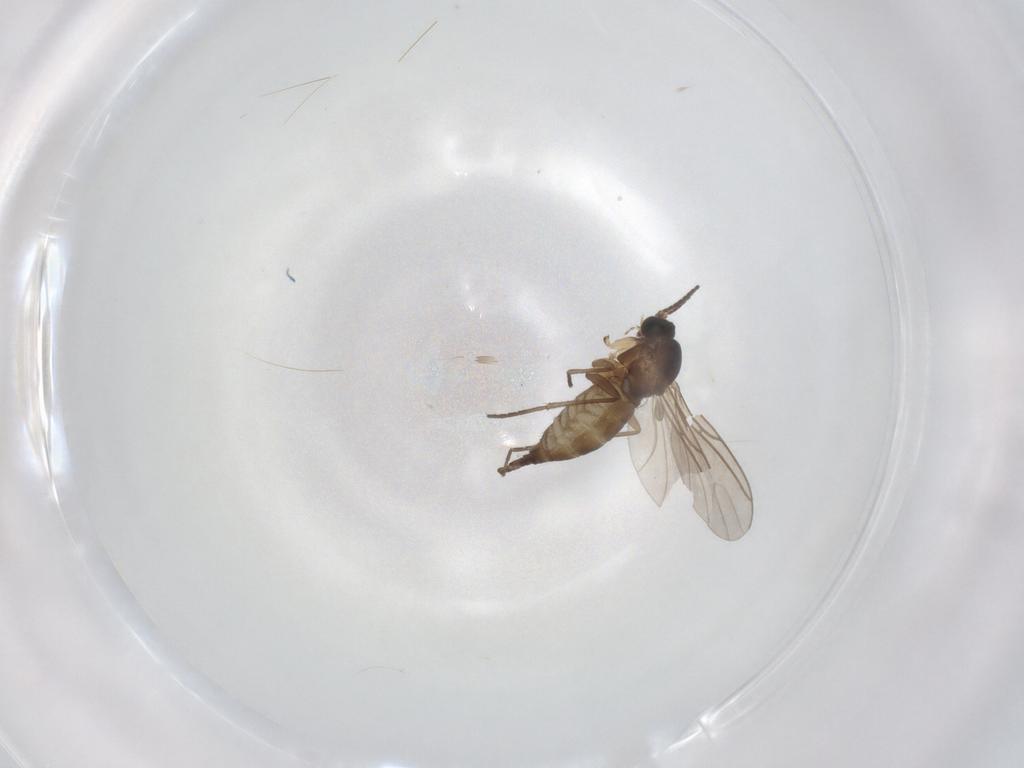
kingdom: Animalia
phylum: Arthropoda
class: Insecta
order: Diptera
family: Sciaridae
